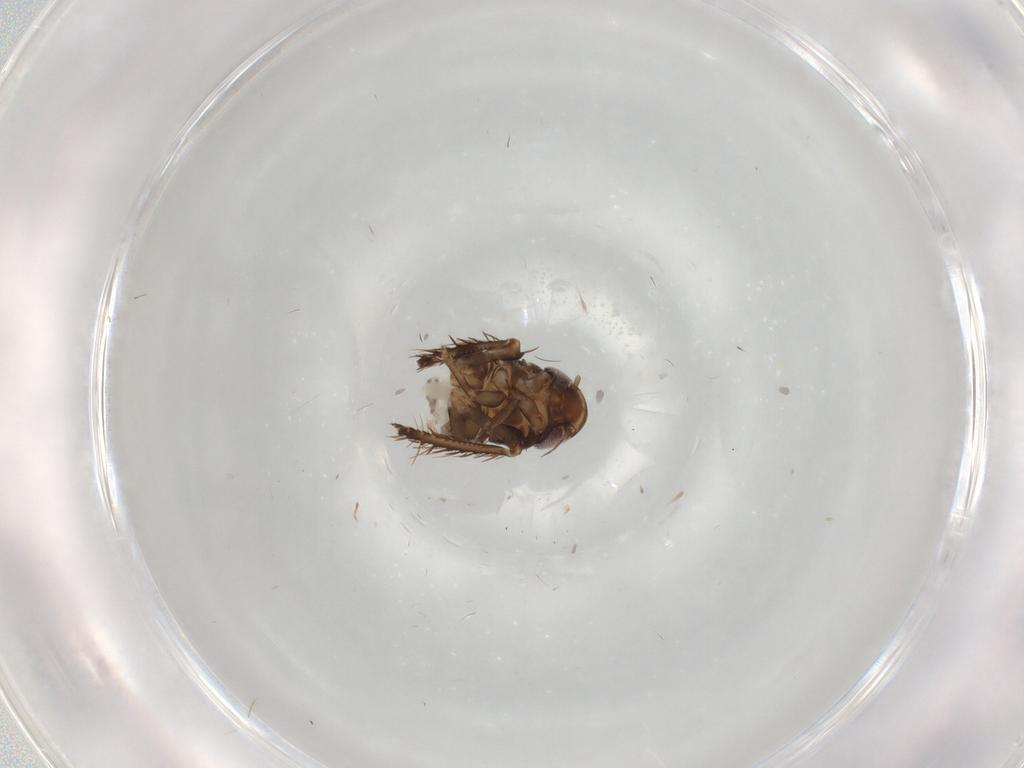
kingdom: Animalia
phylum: Arthropoda
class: Insecta
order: Hemiptera
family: Cicadellidae
